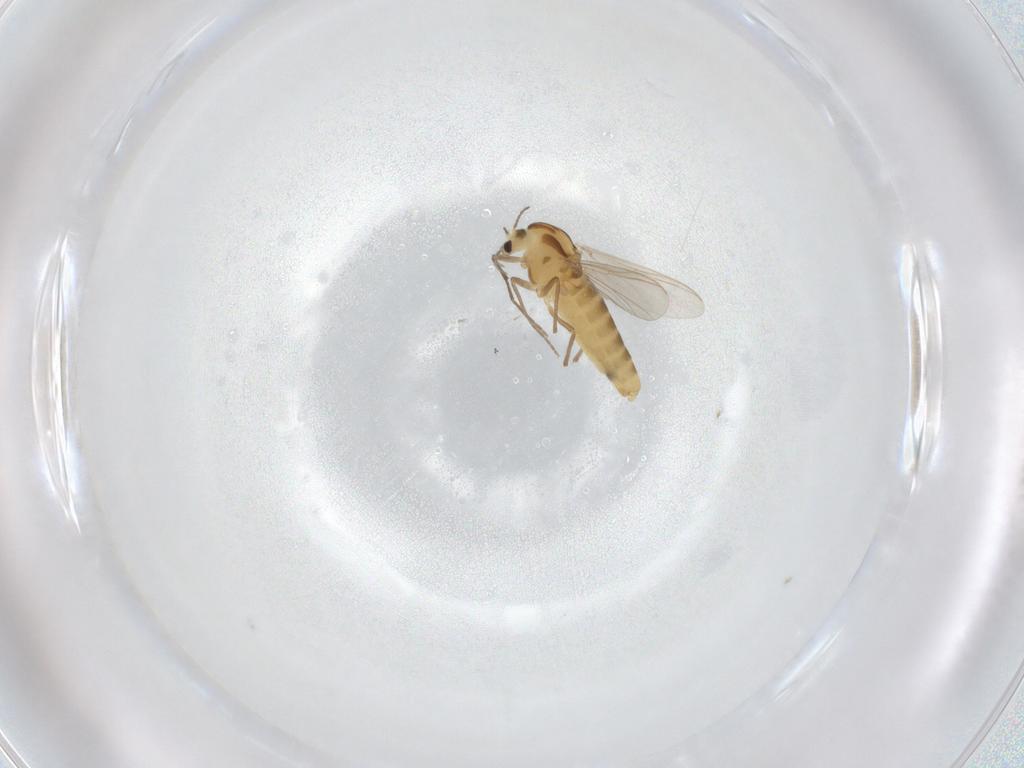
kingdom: Animalia
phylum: Arthropoda
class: Insecta
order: Diptera
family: Chironomidae
